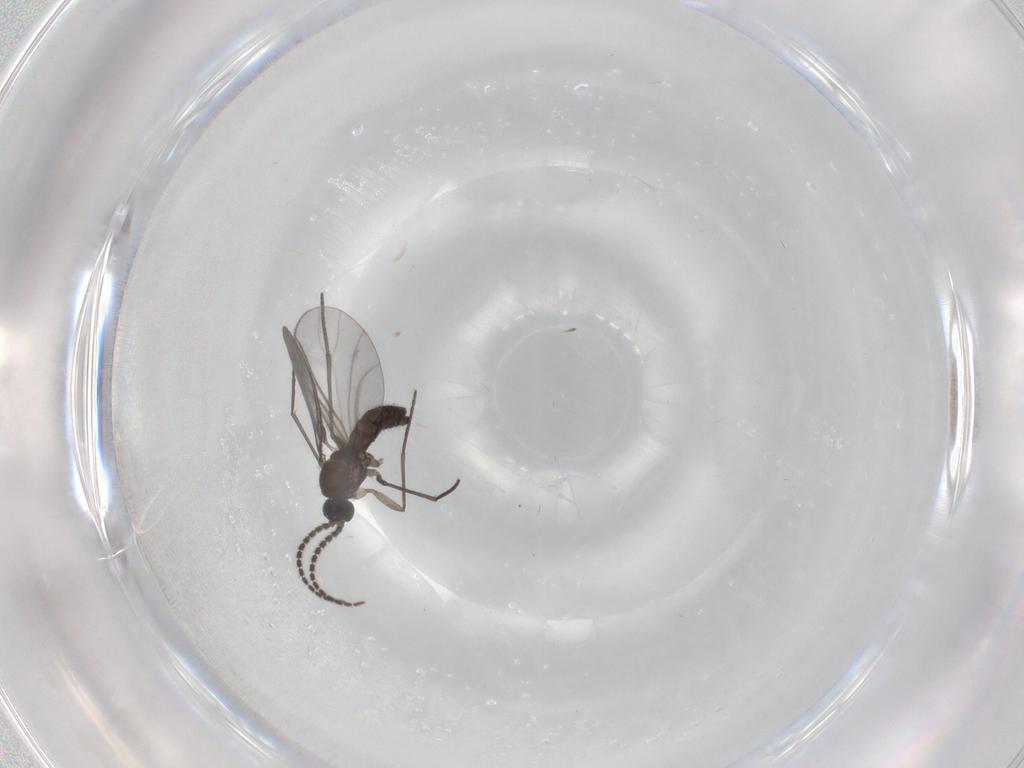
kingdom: Animalia
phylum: Arthropoda
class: Insecta
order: Diptera
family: Sciaridae
